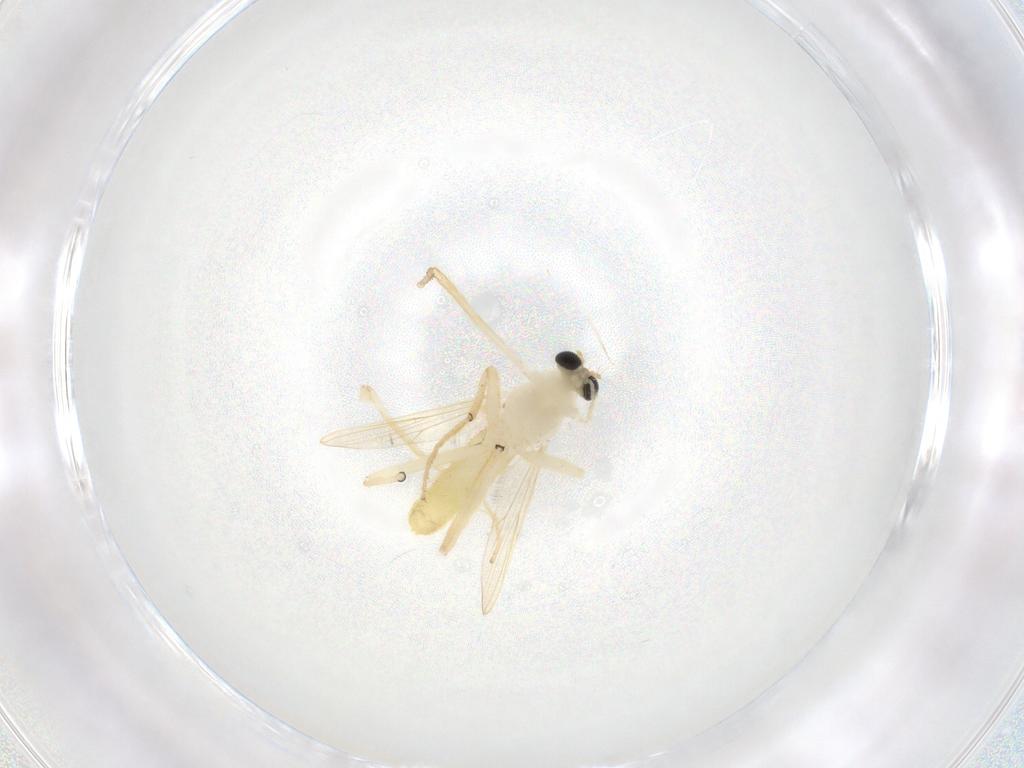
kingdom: Animalia
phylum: Arthropoda
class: Insecta
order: Diptera
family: Chironomidae
